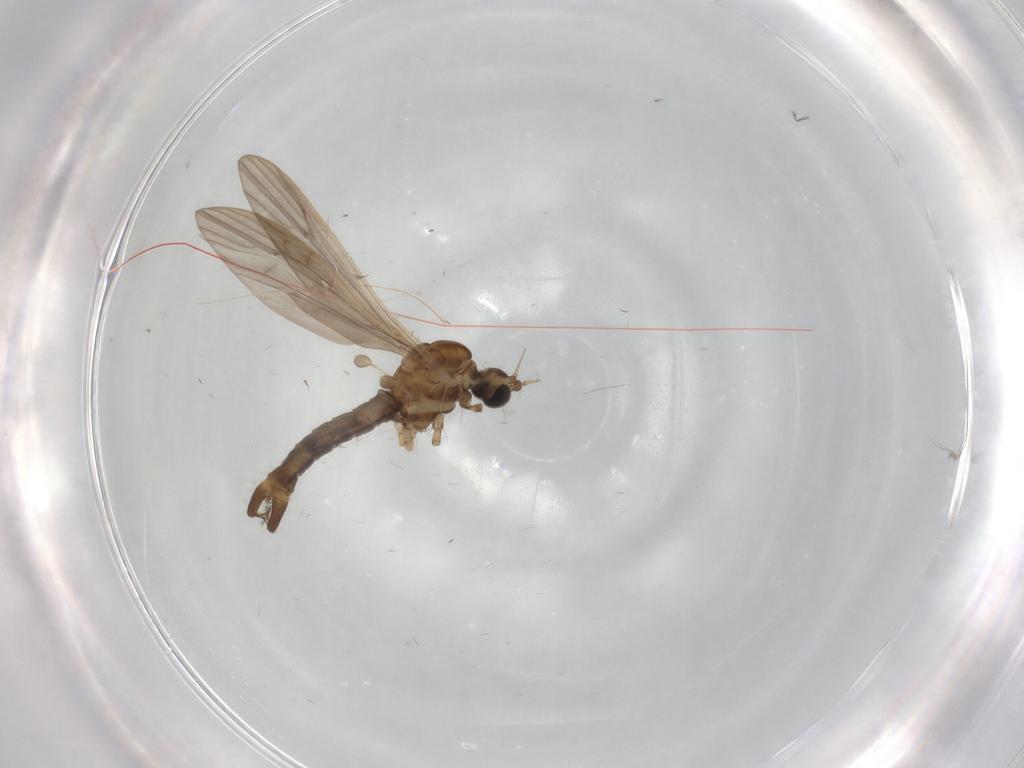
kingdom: Animalia
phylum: Arthropoda
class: Insecta
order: Diptera
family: Limoniidae
